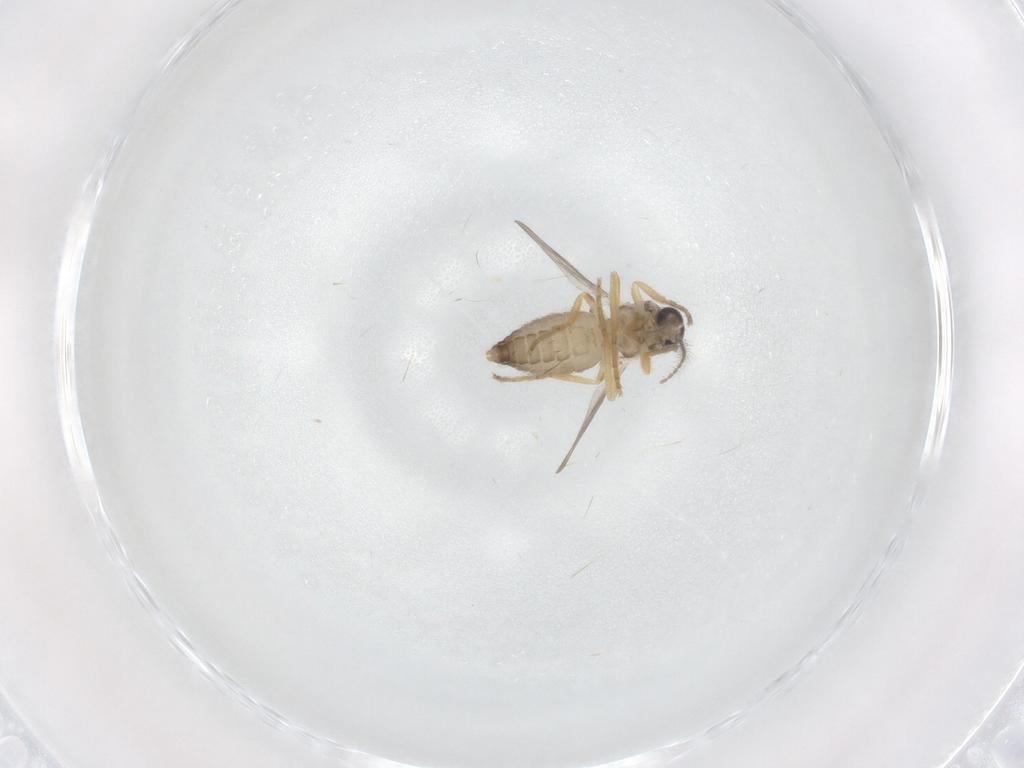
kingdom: Animalia
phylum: Arthropoda
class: Insecta
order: Diptera
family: Ceratopogonidae
